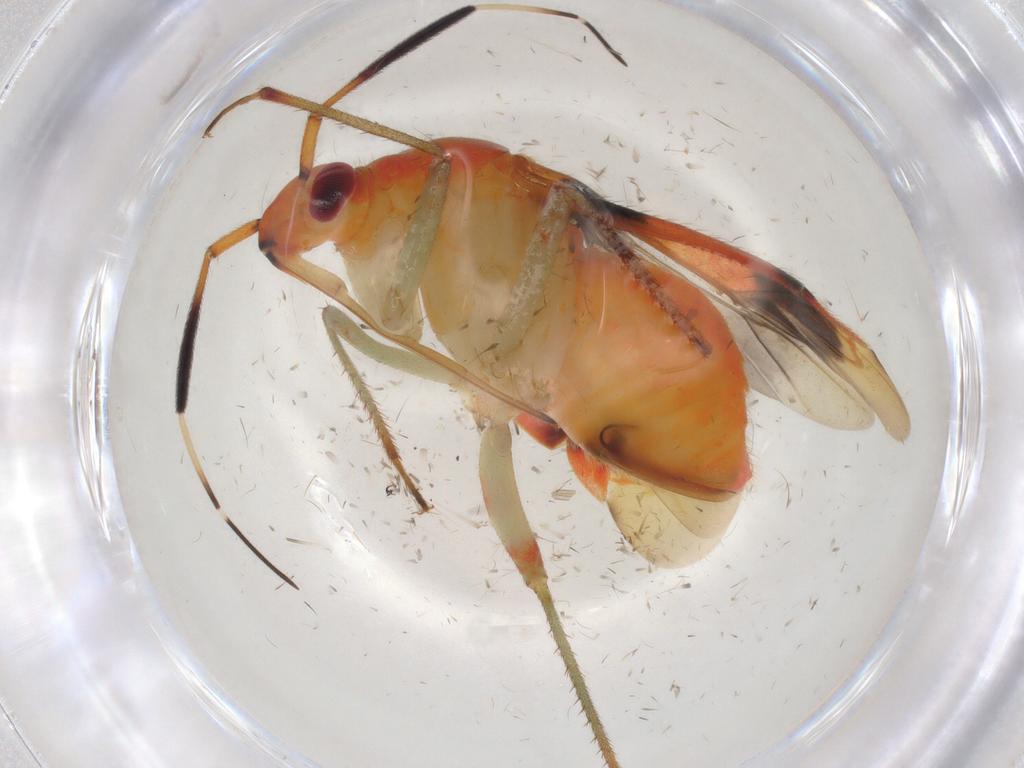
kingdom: Animalia
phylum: Arthropoda
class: Insecta
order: Hemiptera
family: Miridae
